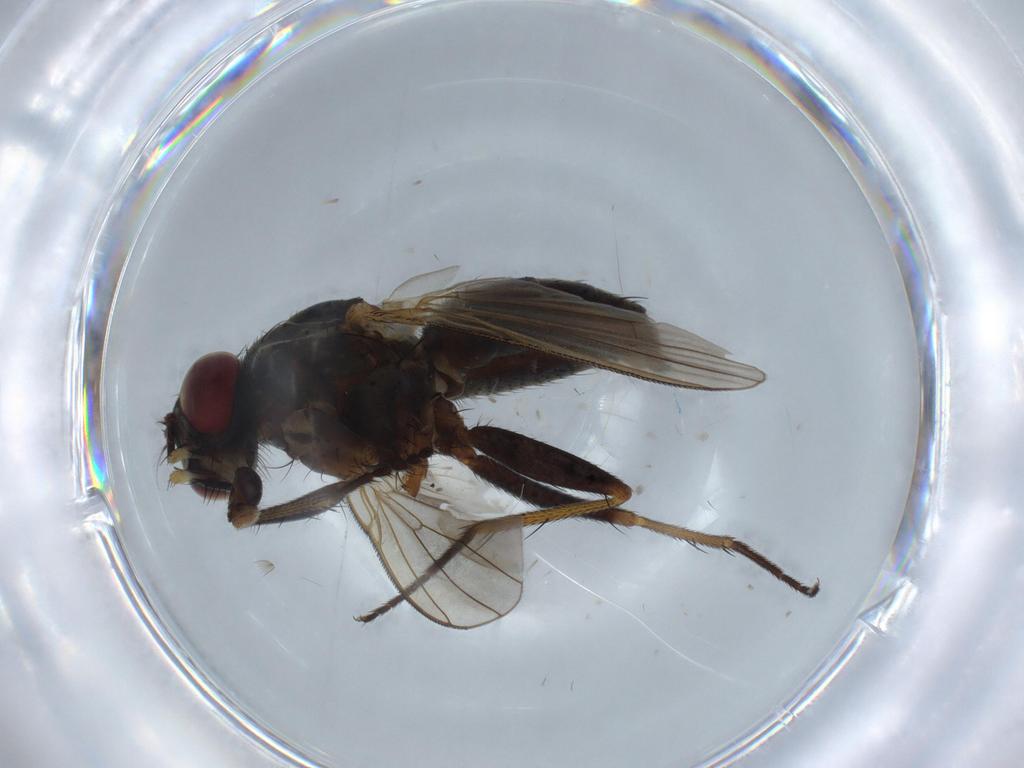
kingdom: Animalia
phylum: Arthropoda
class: Insecta
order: Diptera
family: Muscidae
